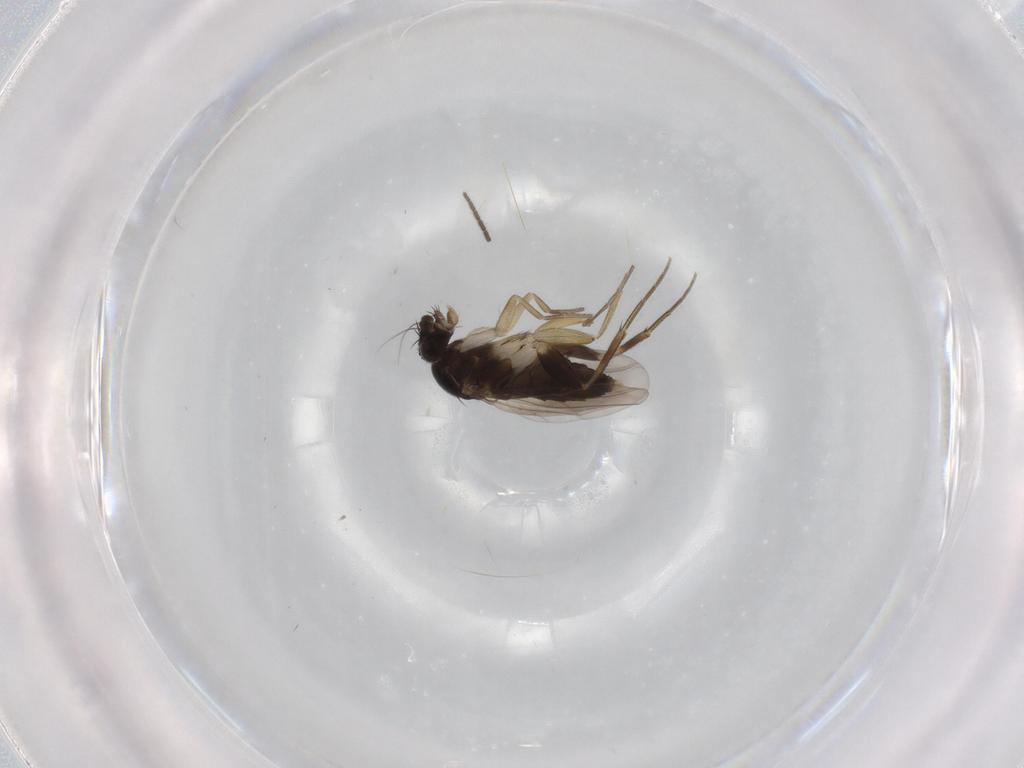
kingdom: Animalia
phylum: Arthropoda
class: Insecta
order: Diptera
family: Phoridae
